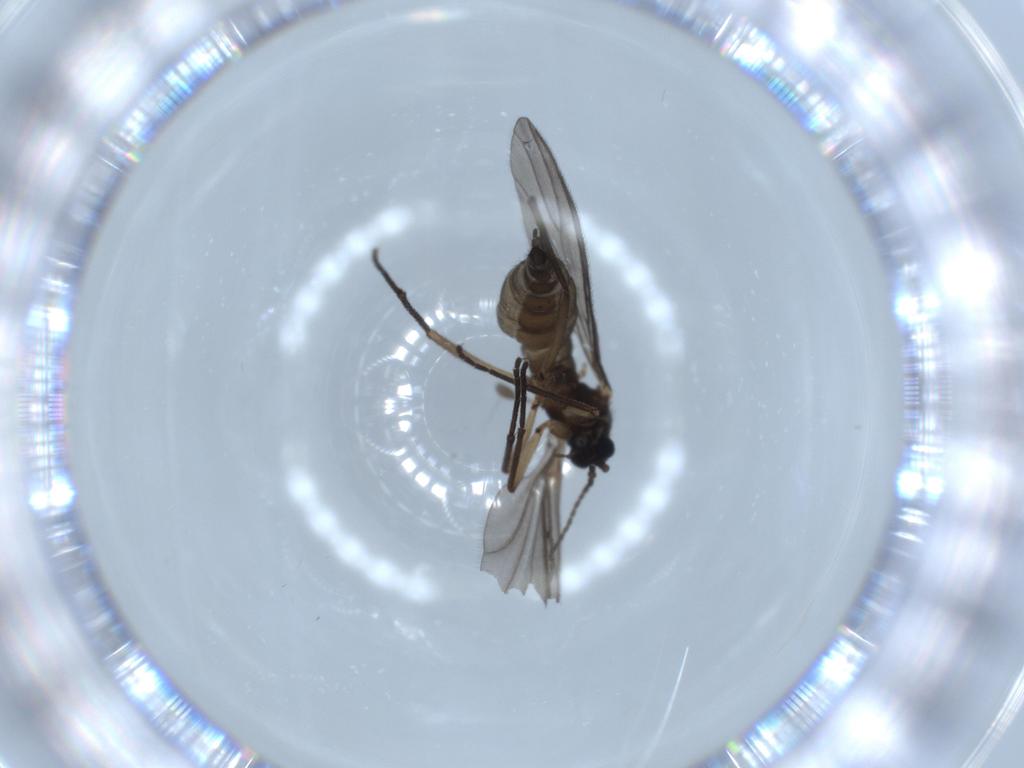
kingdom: Animalia
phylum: Arthropoda
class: Insecta
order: Diptera
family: Sciaridae
